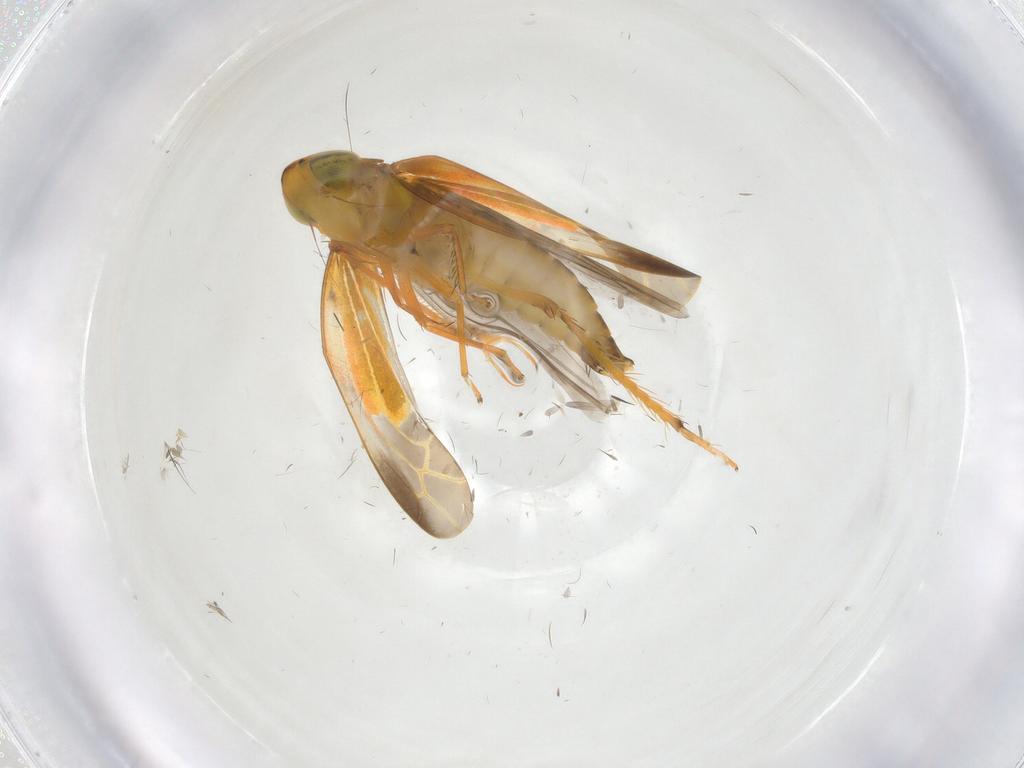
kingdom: Animalia
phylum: Arthropoda
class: Insecta
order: Hemiptera
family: Cicadellidae
